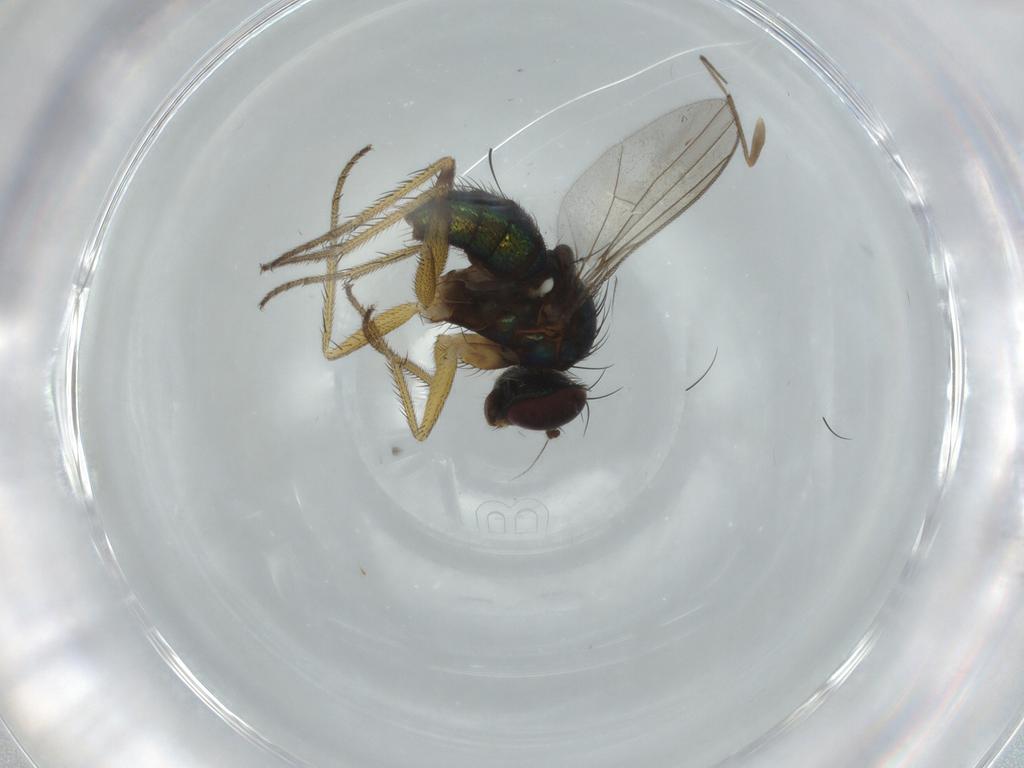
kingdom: Animalia
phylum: Arthropoda
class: Insecta
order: Diptera
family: Dolichopodidae
